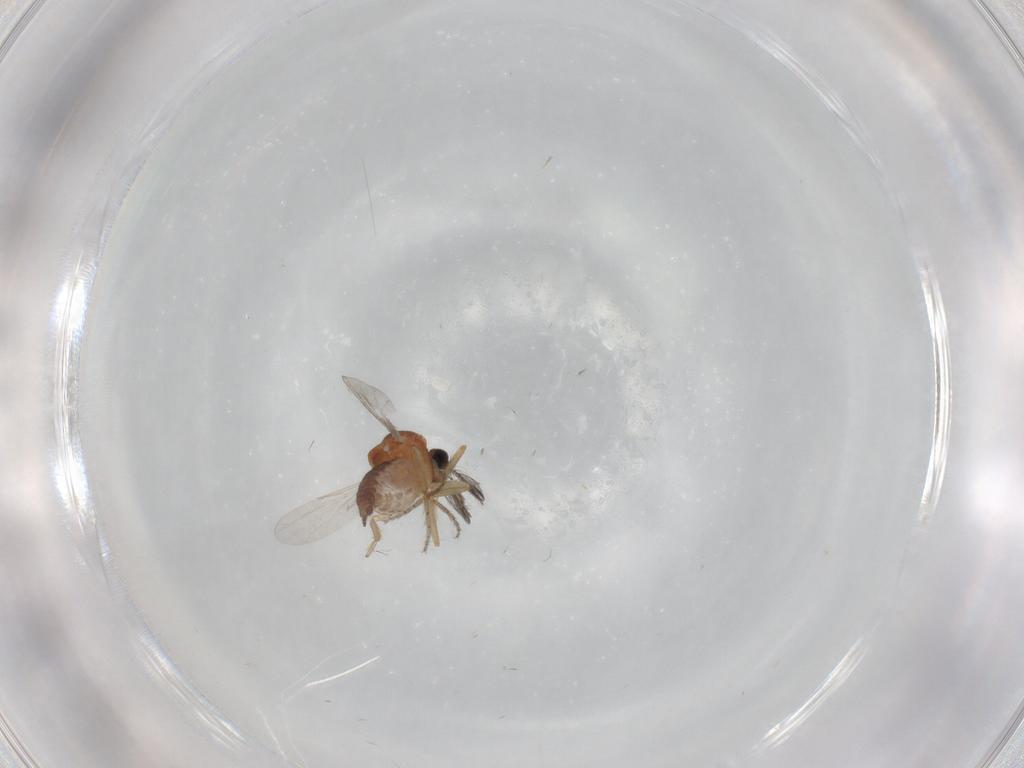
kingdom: Animalia
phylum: Arthropoda
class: Insecta
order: Diptera
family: Ceratopogonidae
